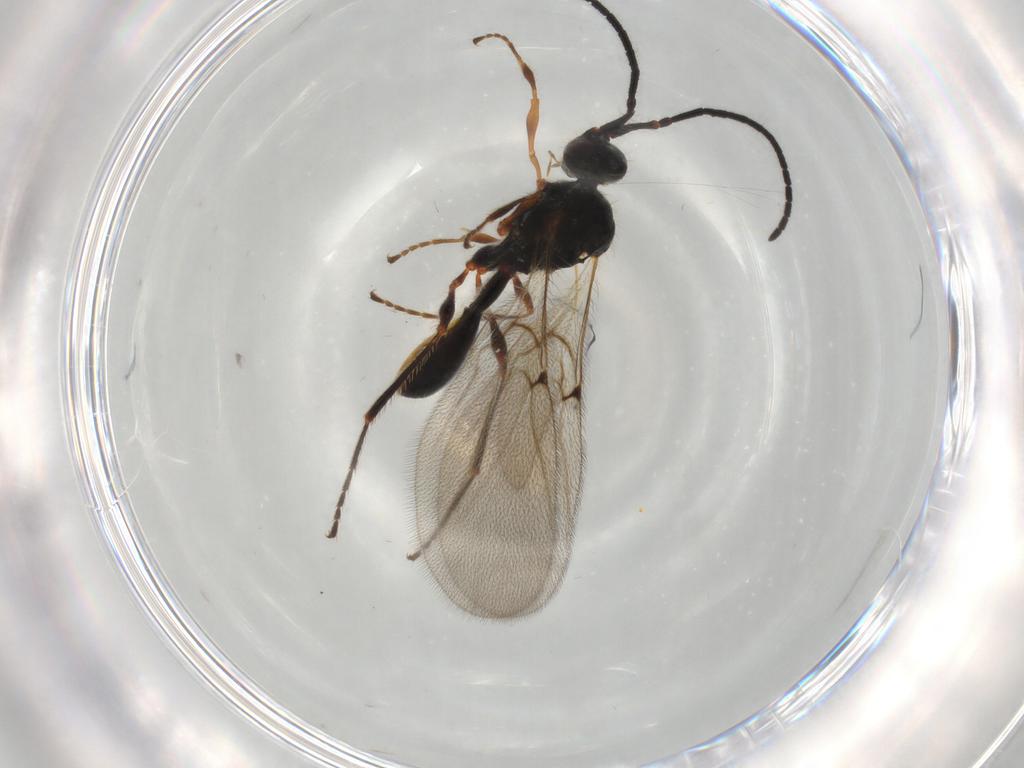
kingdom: Animalia
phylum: Arthropoda
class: Insecta
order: Hymenoptera
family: Diapriidae
